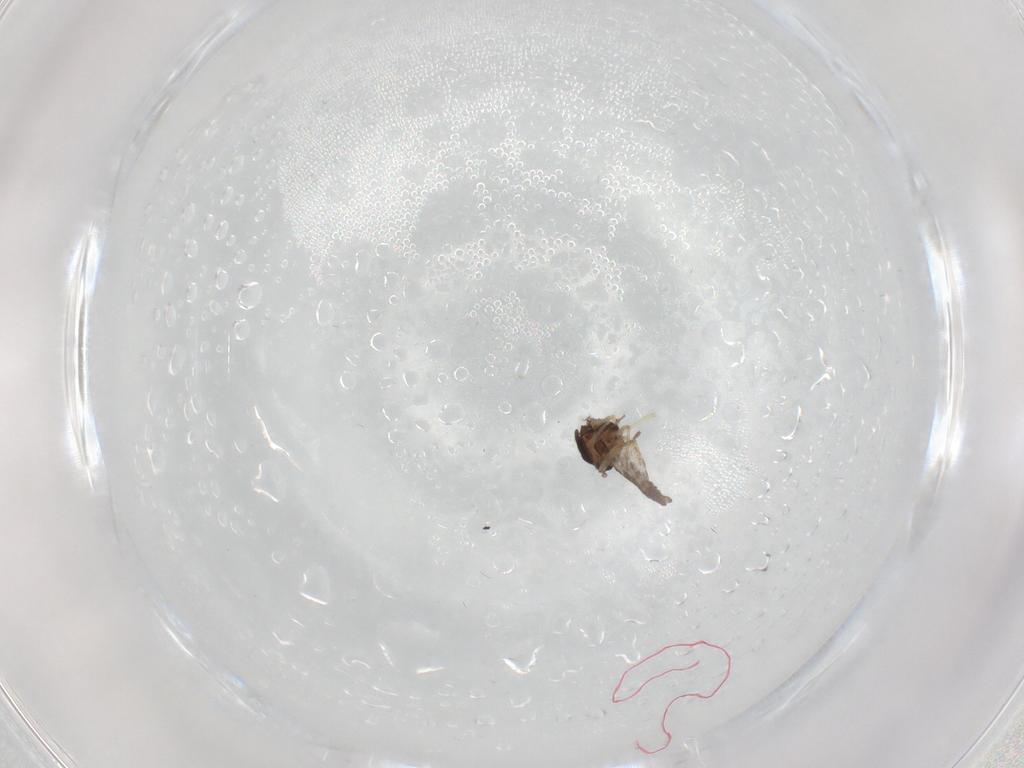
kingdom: Animalia
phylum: Arthropoda
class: Insecta
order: Diptera
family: Ceratopogonidae
